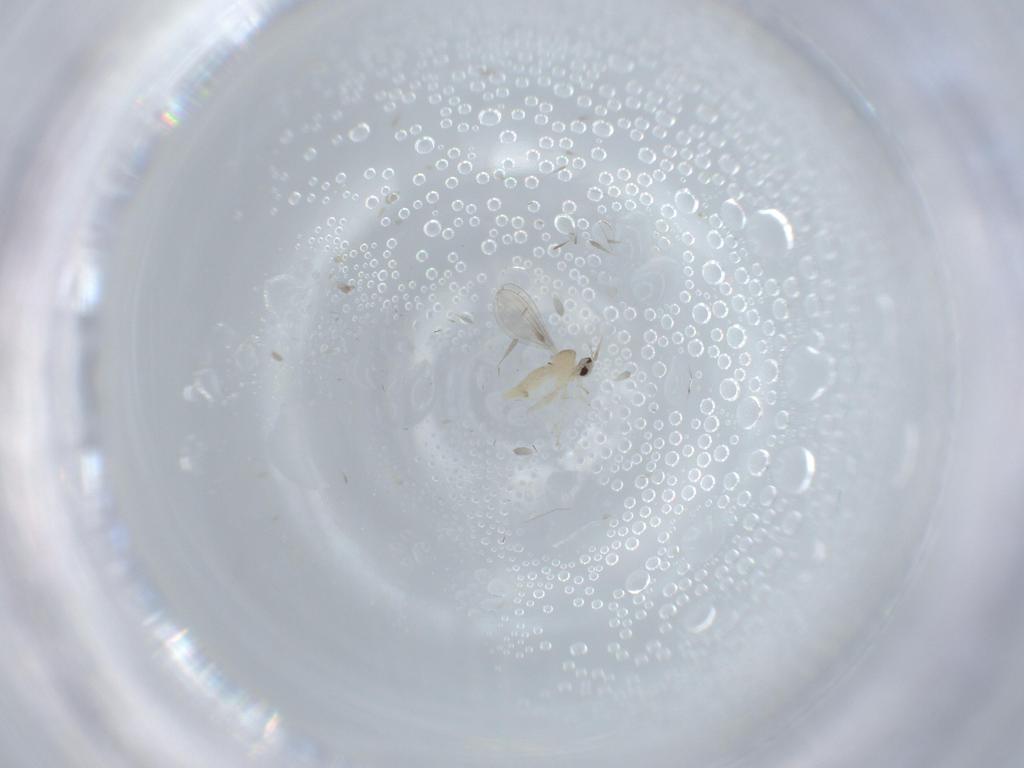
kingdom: Animalia
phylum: Arthropoda
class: Insecta
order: Diptera
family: Cecidomyiidae
